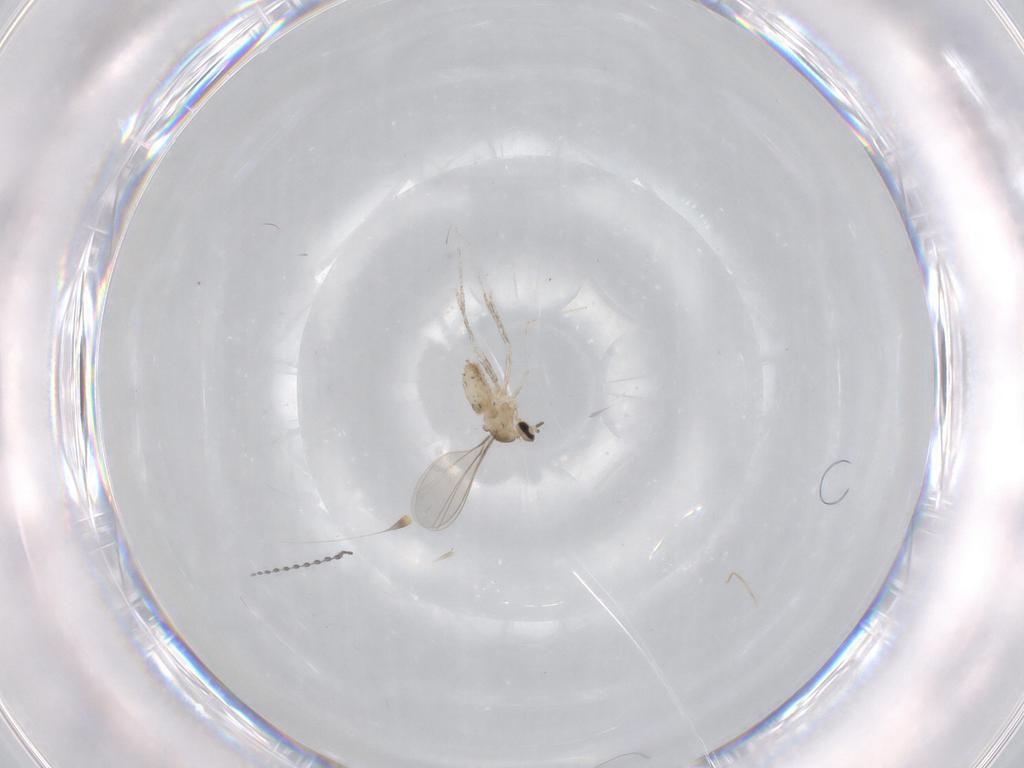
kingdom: Animalia
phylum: Arthropoda
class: Insecta
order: Diptera
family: Cecidomyiidae
